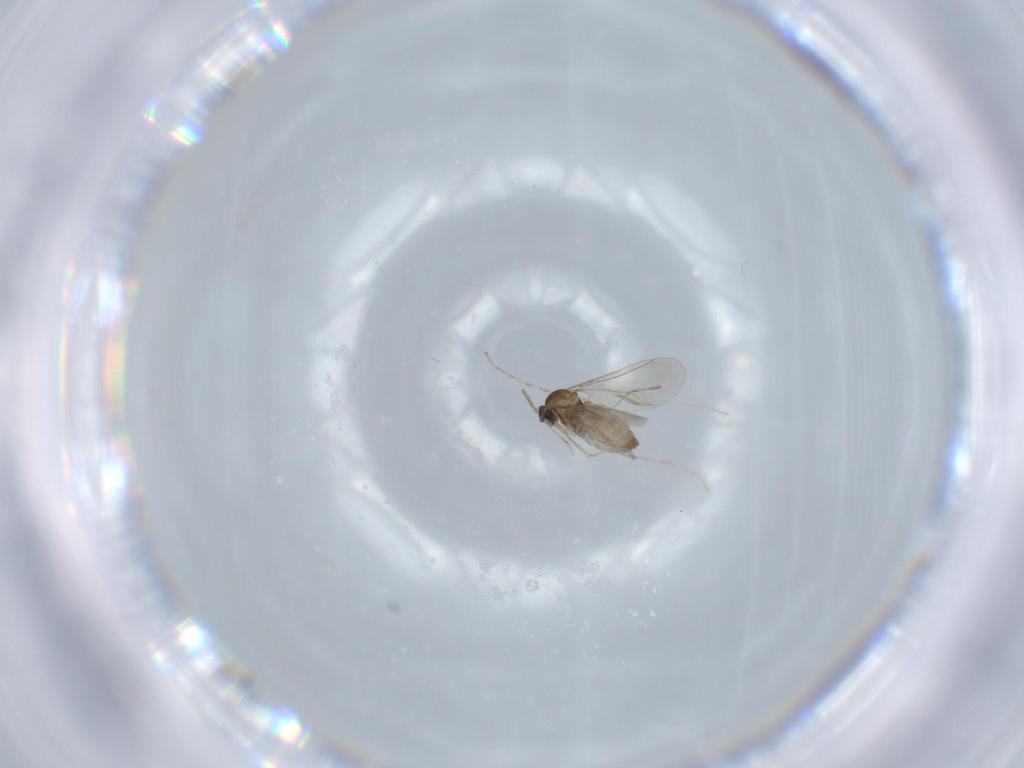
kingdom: Animalia
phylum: Arthropoda
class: Insecta
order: Diptera
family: Cecidomyiidae
